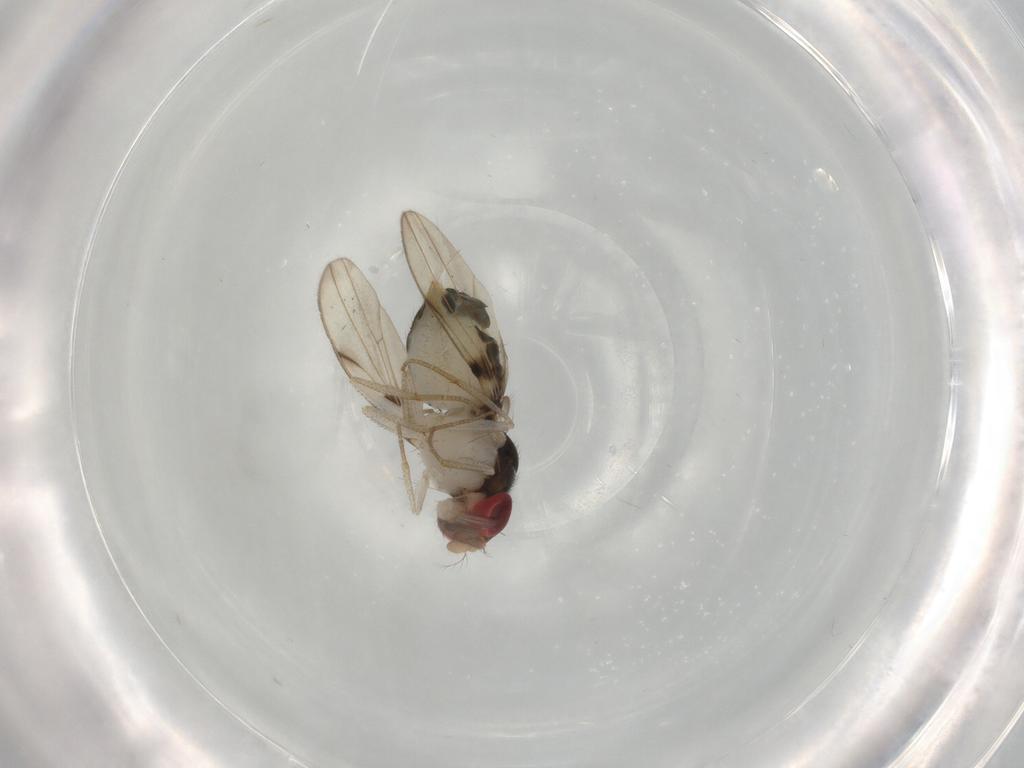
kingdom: Animalia
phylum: Arthropoda
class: Insecta
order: Diptera
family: Drosophilidae
